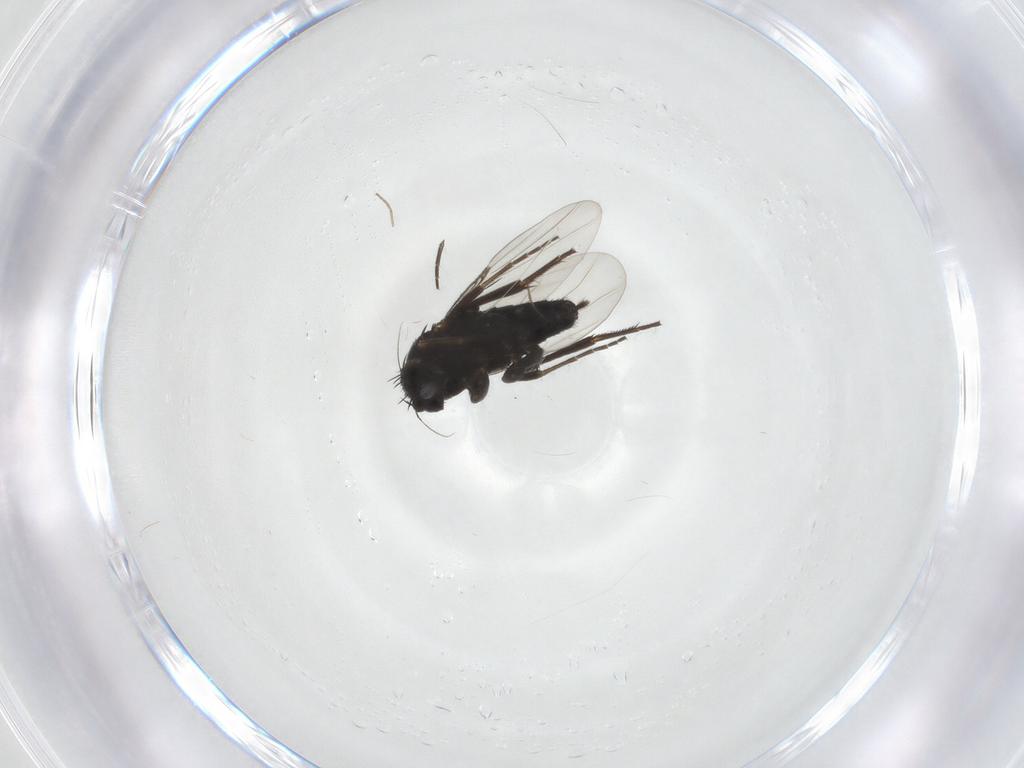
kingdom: Animalia
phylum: Arthropoda
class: Insecta
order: Diptera
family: Phoridae
